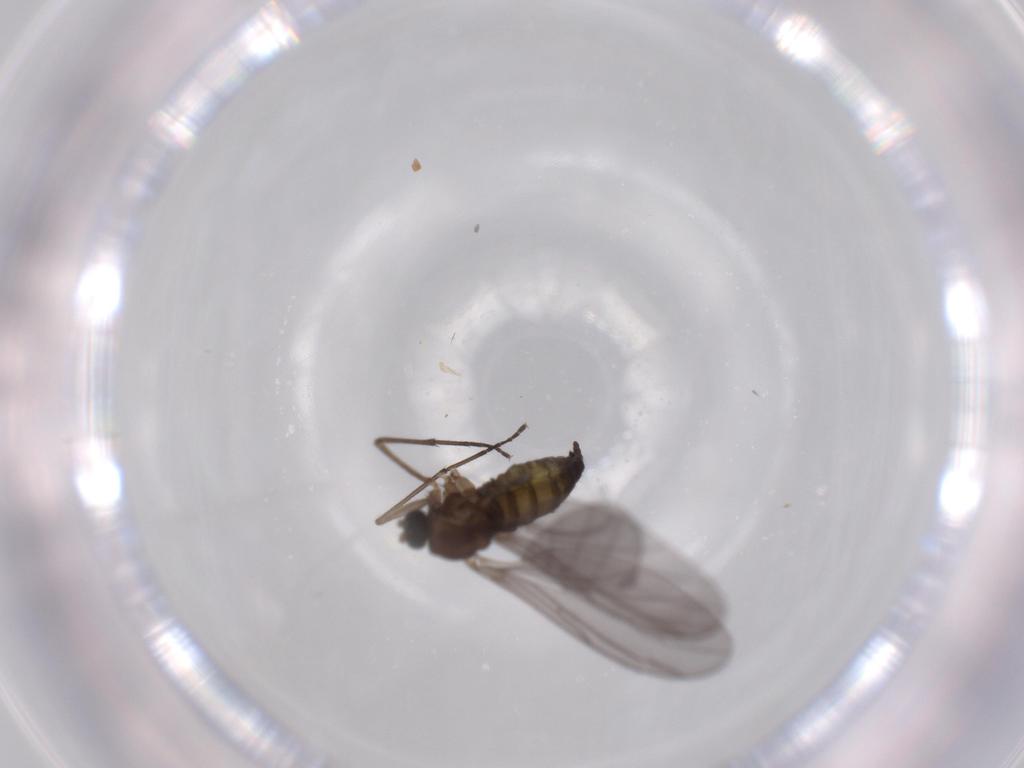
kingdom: Animalia
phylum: Arthropoda
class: Insecta
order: Diptera
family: Sciaridae
